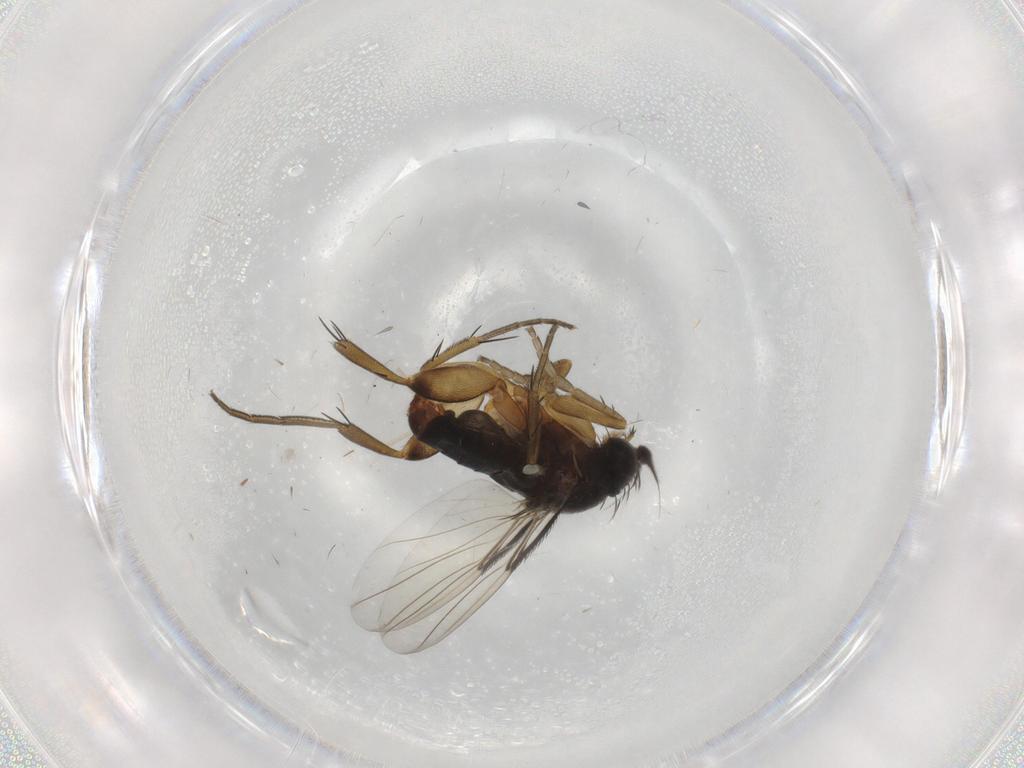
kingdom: Animalia
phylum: Arthropoda
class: Insecta
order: Diptera
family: Phoridae
